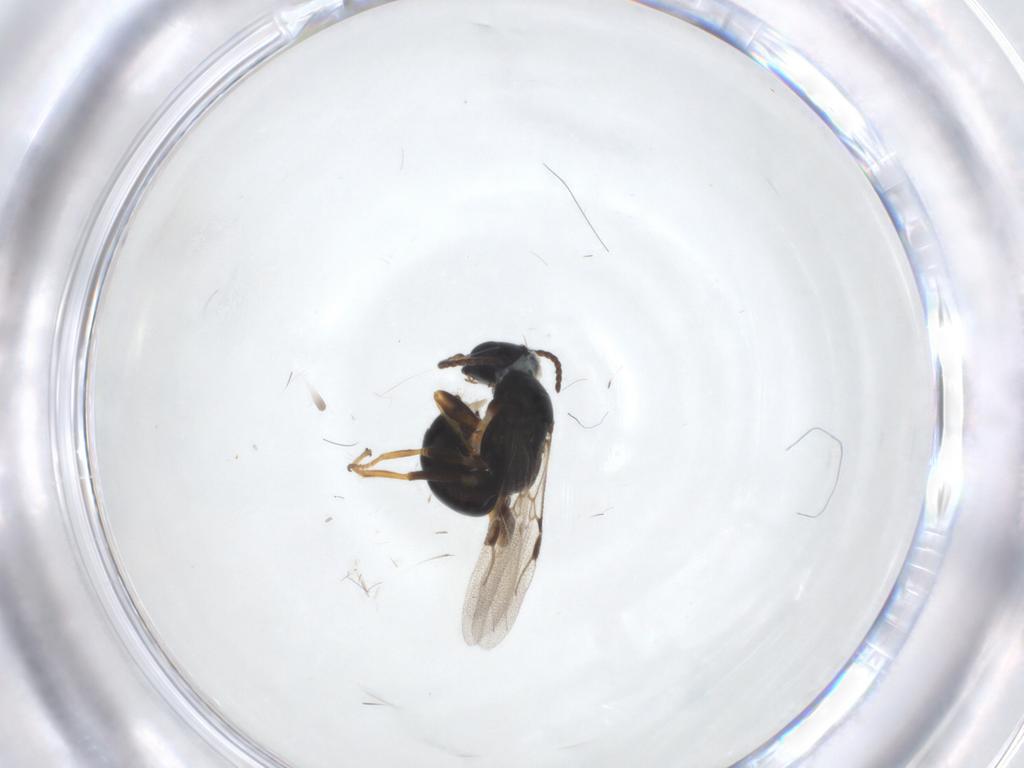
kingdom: Animalia
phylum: Arthropoda
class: Insecta
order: Hymenoptera
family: Bethylidae
